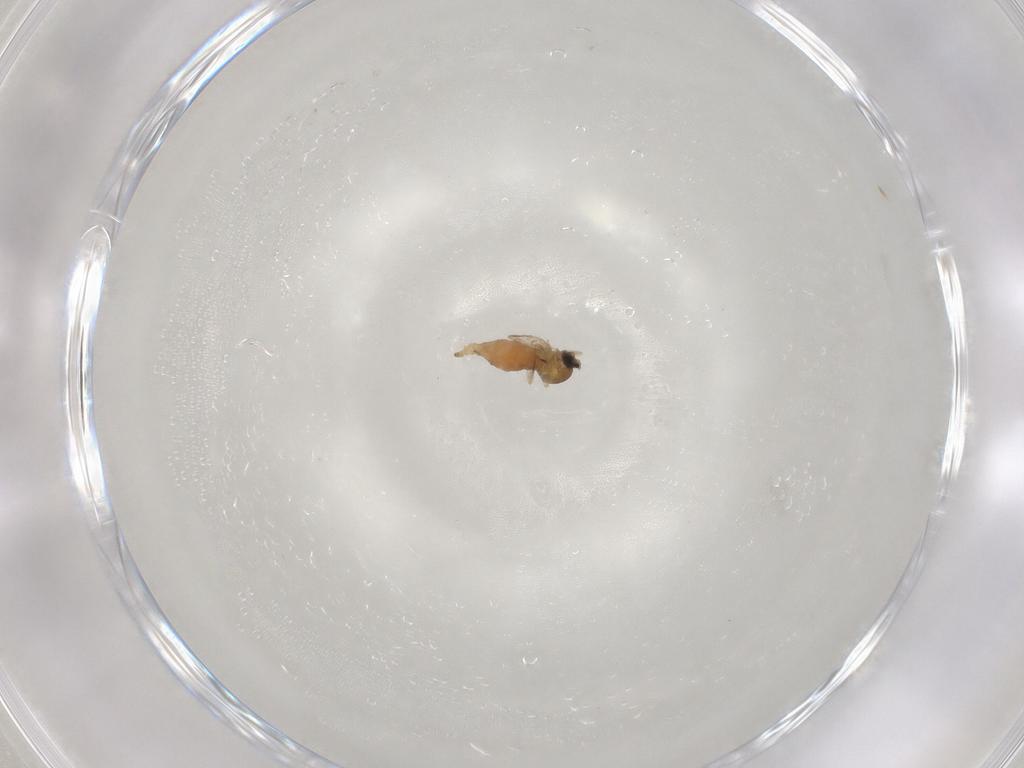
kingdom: Animalia
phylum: Arthropoda
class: Insecta
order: Diptera
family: Cecidomyiidae
